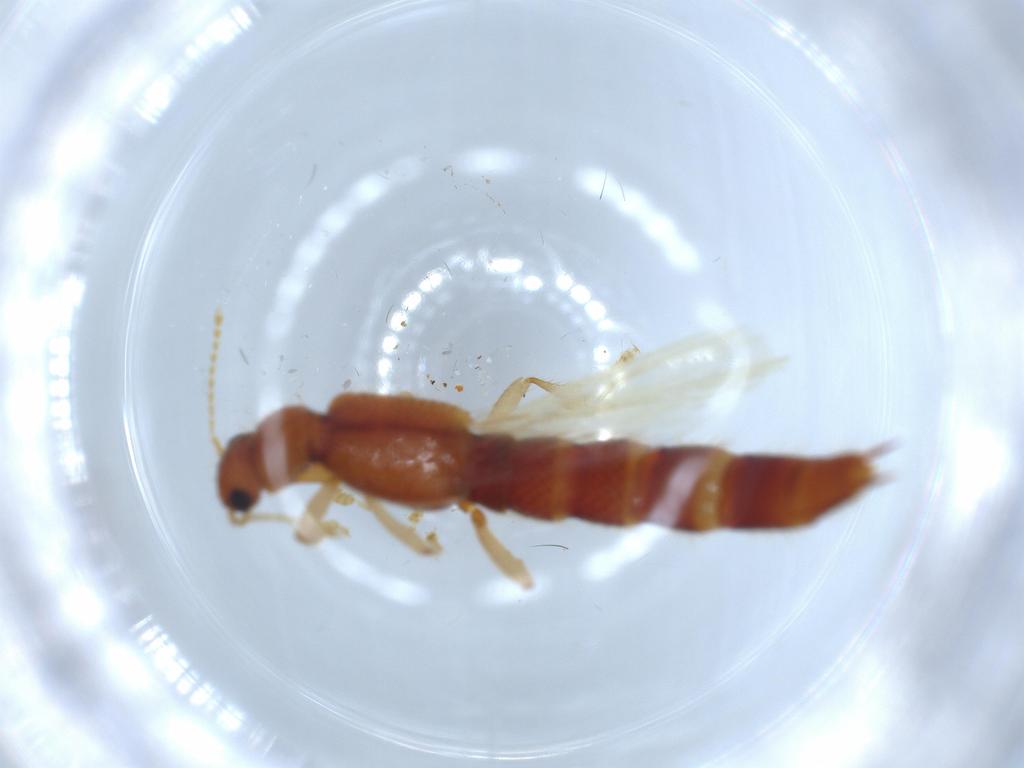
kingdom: Animalia
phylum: Arthropoda
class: Insecta
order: Coleoptera
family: Staphylinidae
